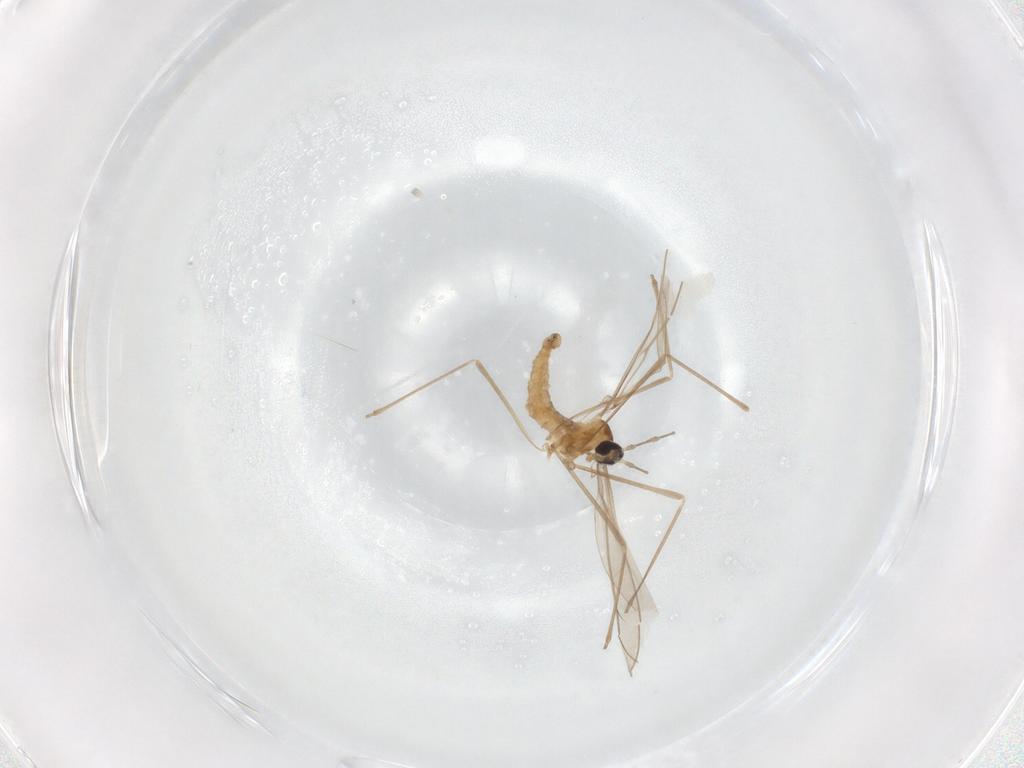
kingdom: Animalia
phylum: Arthropoda
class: Insecta
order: Diptera
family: Cecidomyiidae
